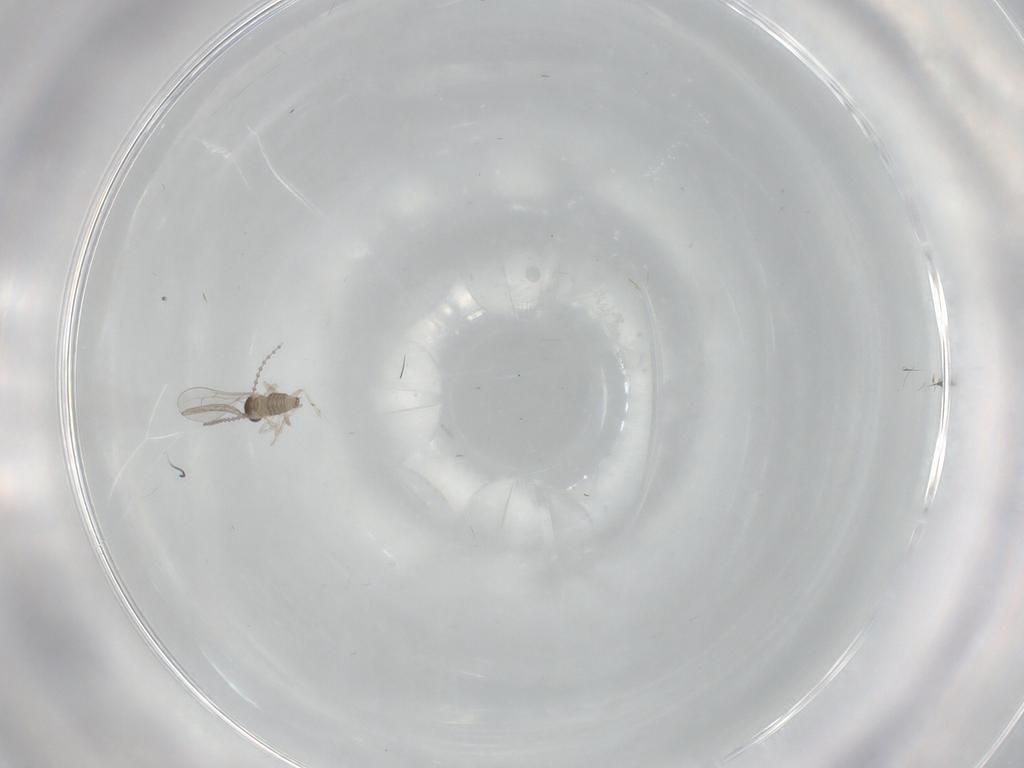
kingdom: Animalia
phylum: Arthropoda
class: Insecta
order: Diptera
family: Cecidomyiidae
